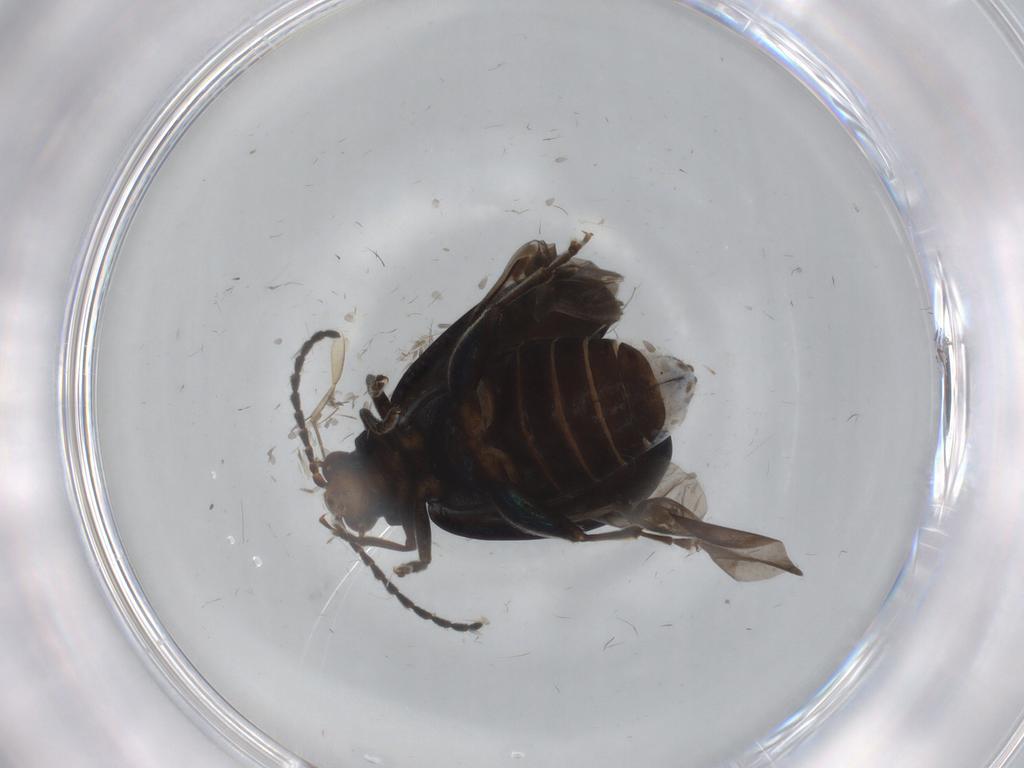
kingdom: Animalia
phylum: Arthropoda
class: Insecta
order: Coleoptera
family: Chrysomelidae
